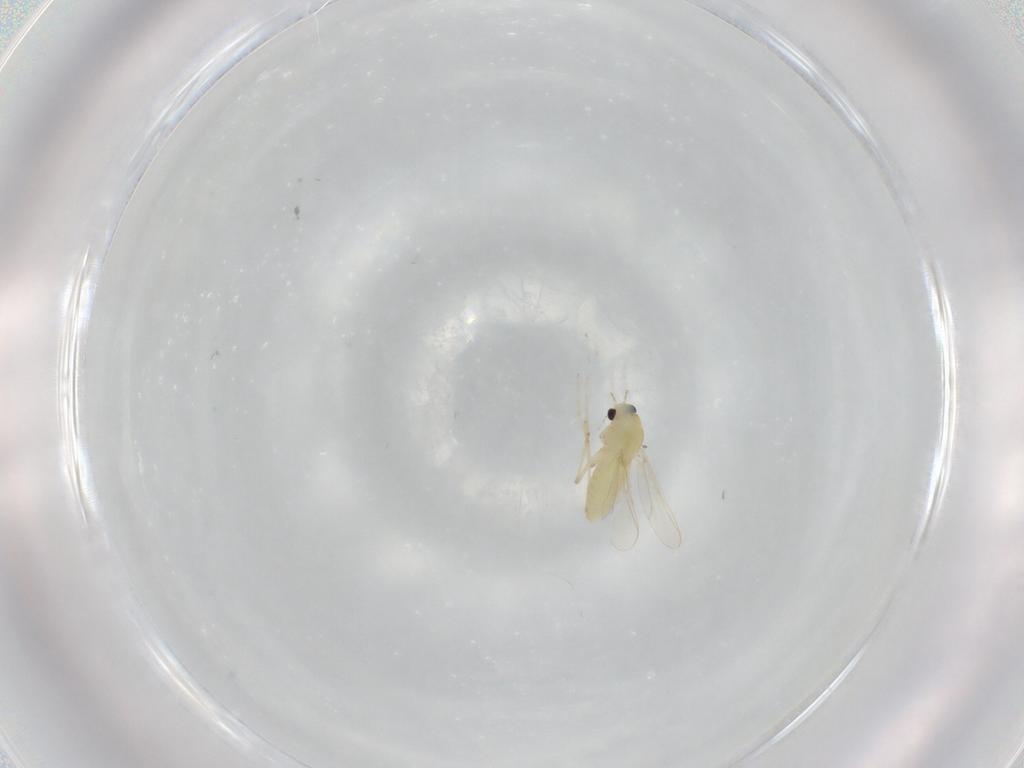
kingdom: Animalia
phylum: Arthropoda
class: Insecta
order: Diptera
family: Chironomidae
